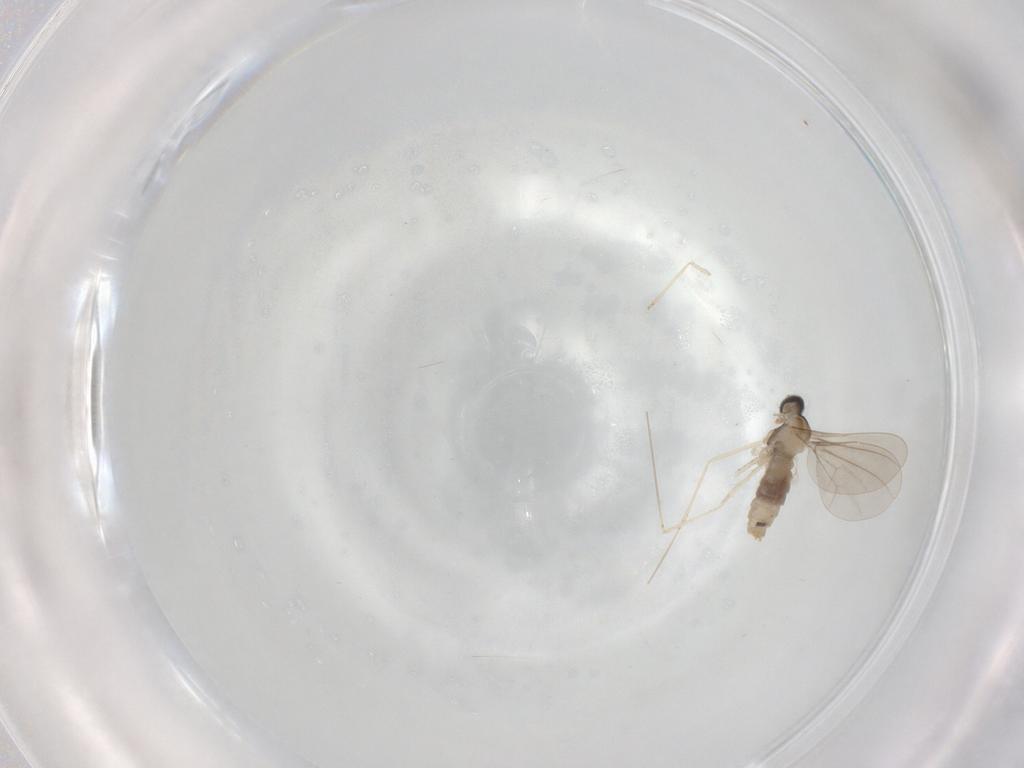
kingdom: Animalia
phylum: Arthropoda
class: Insecta
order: Diptera
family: Cecidomyiidae
